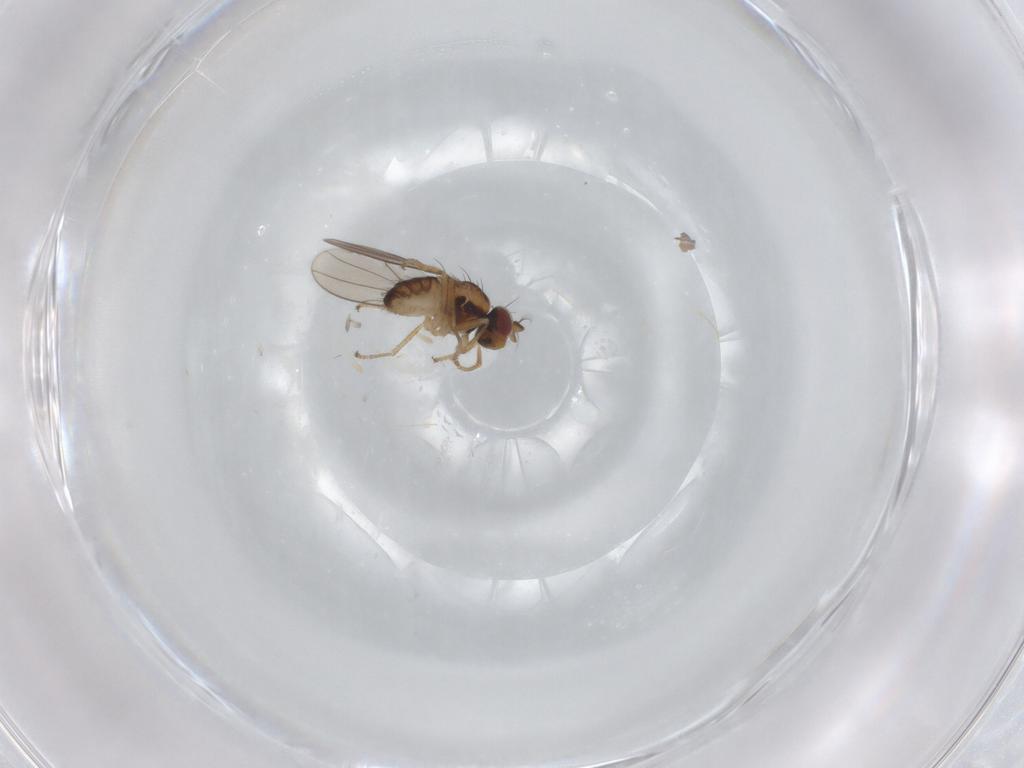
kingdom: Animalia
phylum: Arthropoda
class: Insecta
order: Diptera
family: Ephydridae
